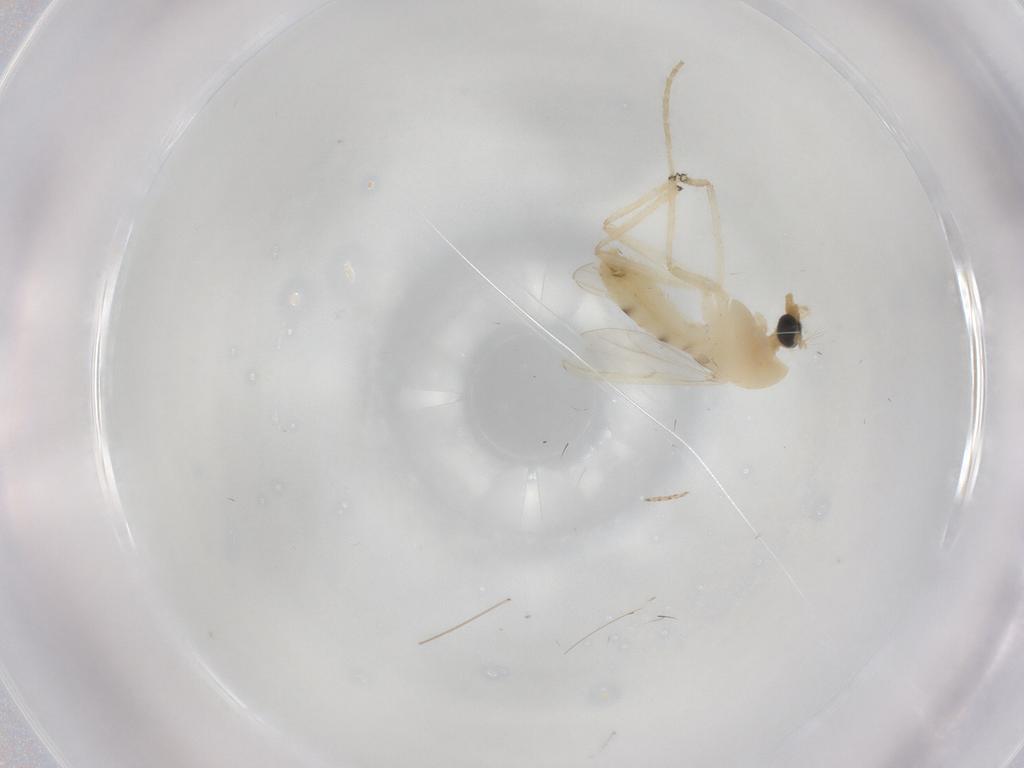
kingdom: Animalia
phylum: Arthropoda
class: Insecta
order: Diptera
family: Chironomidae
